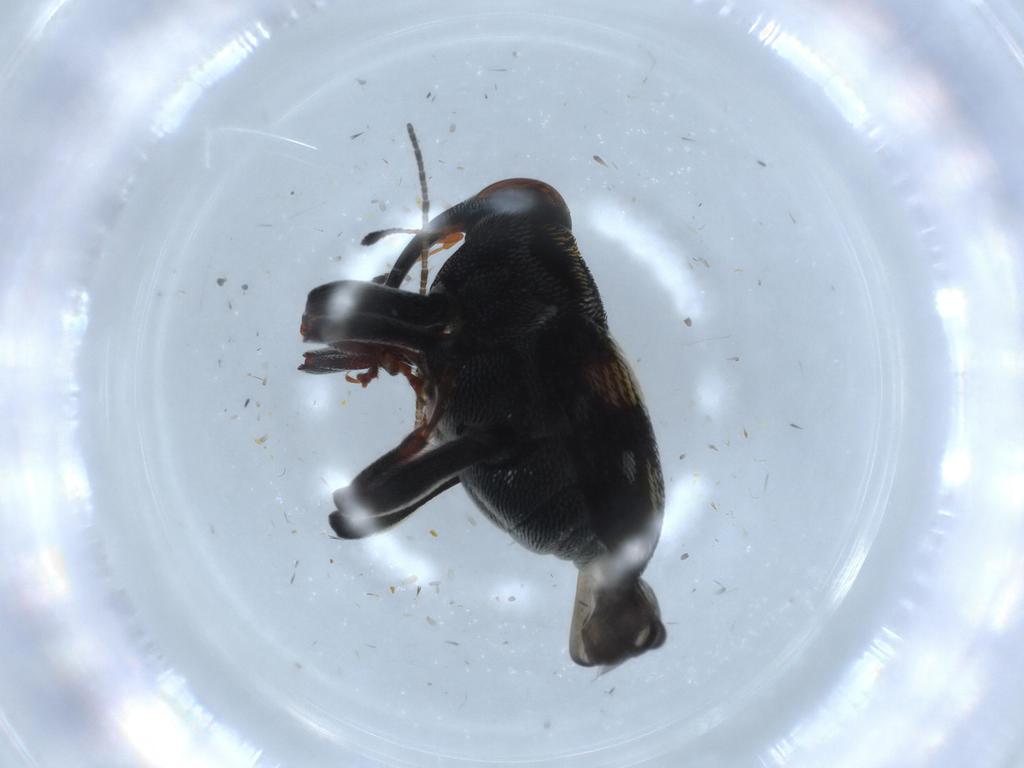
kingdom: Animalia
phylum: Arthropoda
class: Insecta
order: Coleoptera
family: Curculionidae
